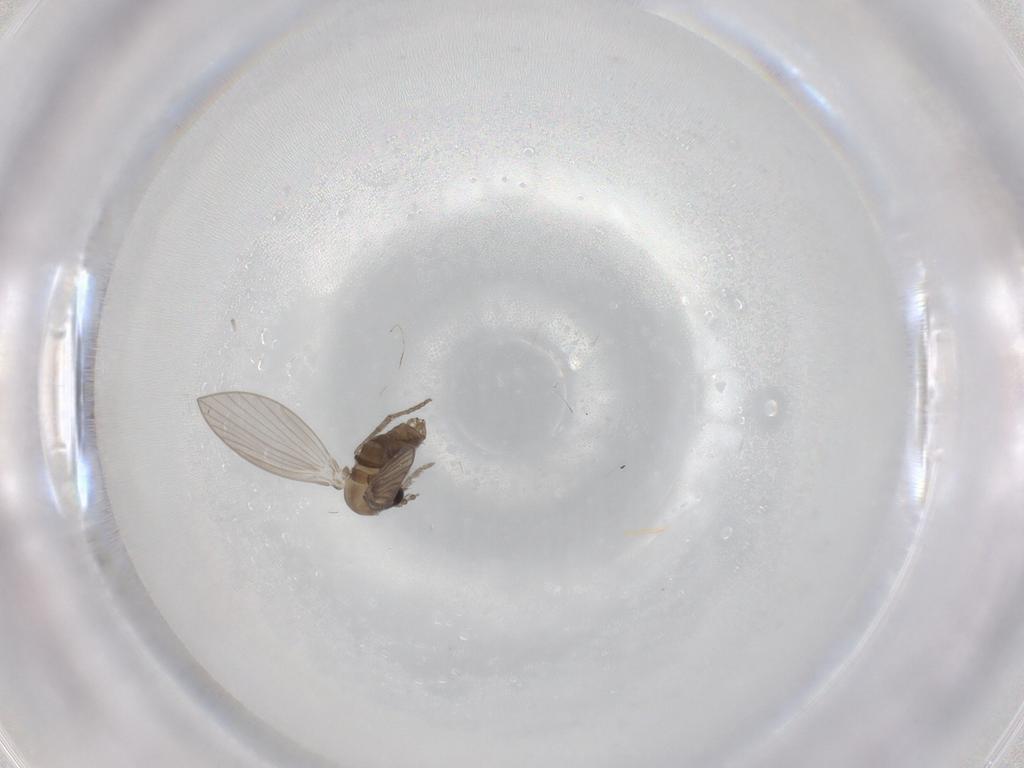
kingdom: Animalia
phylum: Arthropoda
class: Insecta
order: Diptera
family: Psychodidae
